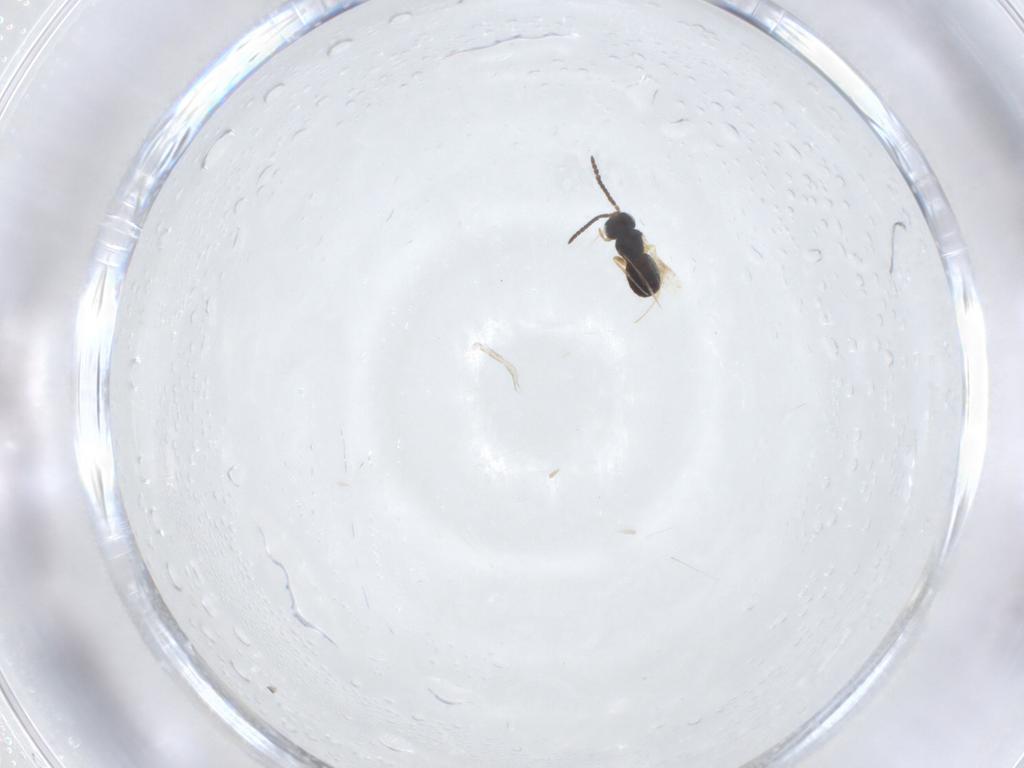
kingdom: Animalia
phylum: Arthropoda
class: Insecta
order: Hymenoptera
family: Scelionidae
